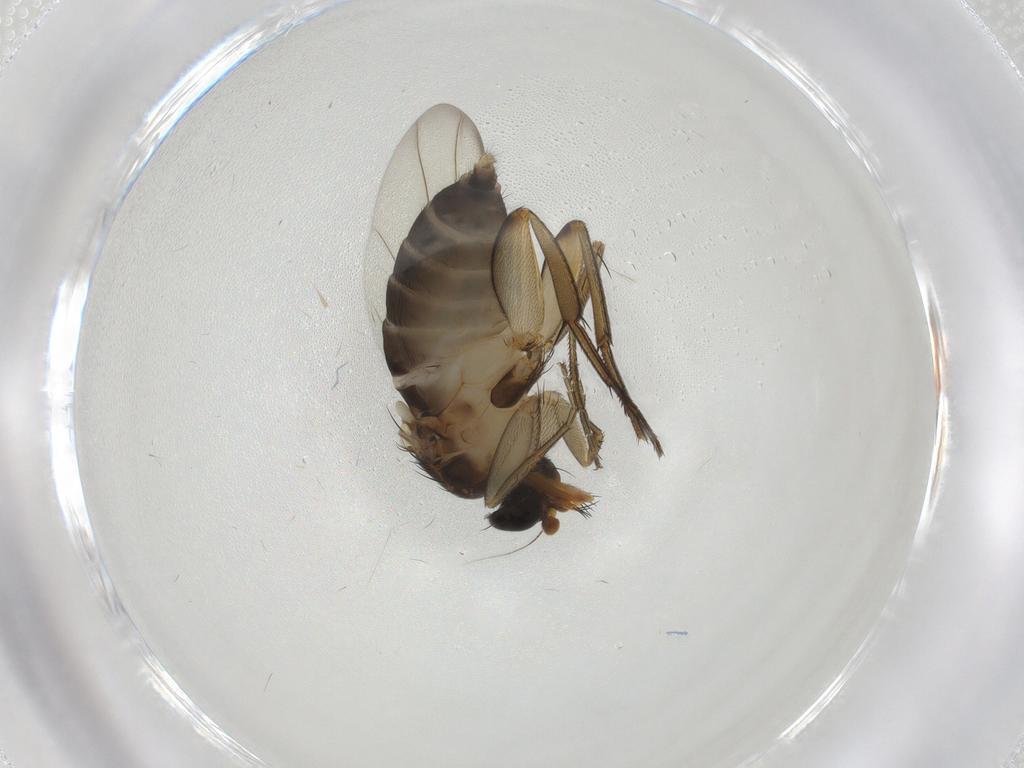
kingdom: Animalia
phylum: Arthropoda
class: Insecta
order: Diptera
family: Phoridae
